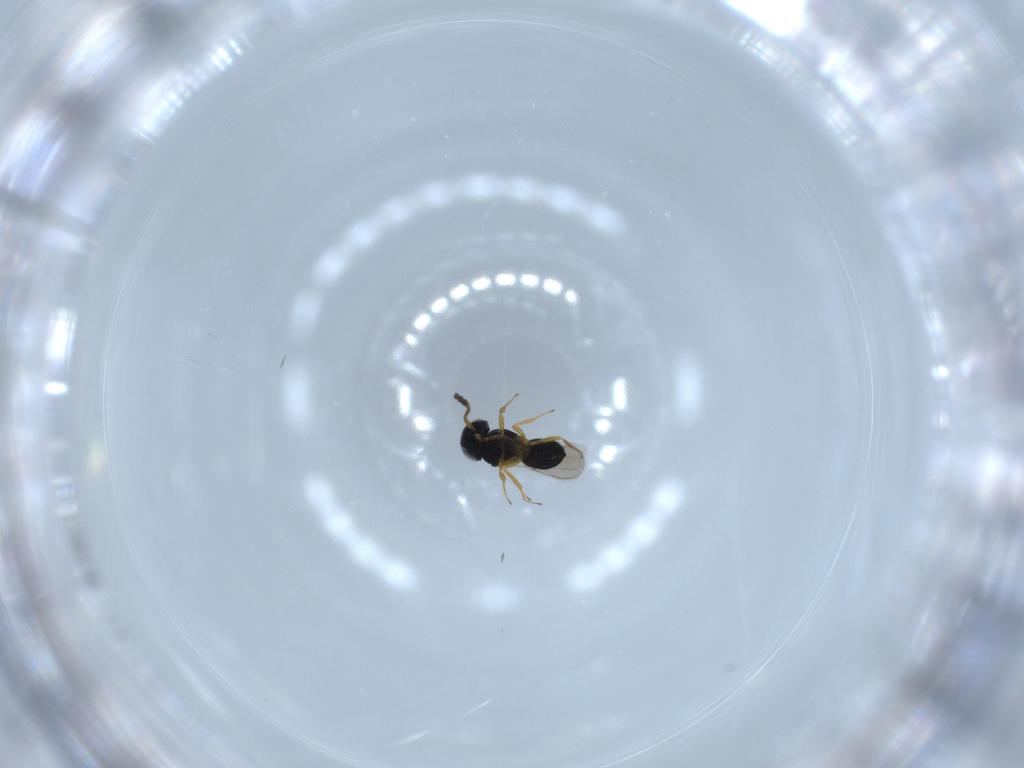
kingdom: Animalia
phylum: Arthropoda
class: Insecta
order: Hymenoptera
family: Scelionidae
